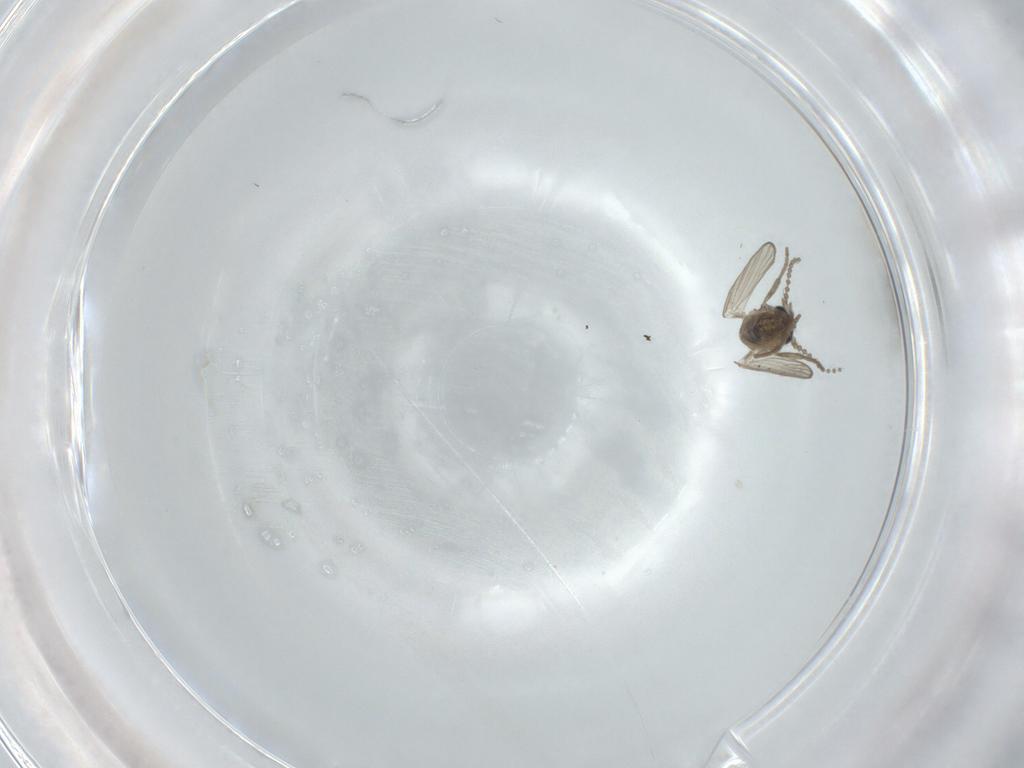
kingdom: Animalia
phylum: Arthropoda
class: Insecta
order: Diptera
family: Psychodidae
